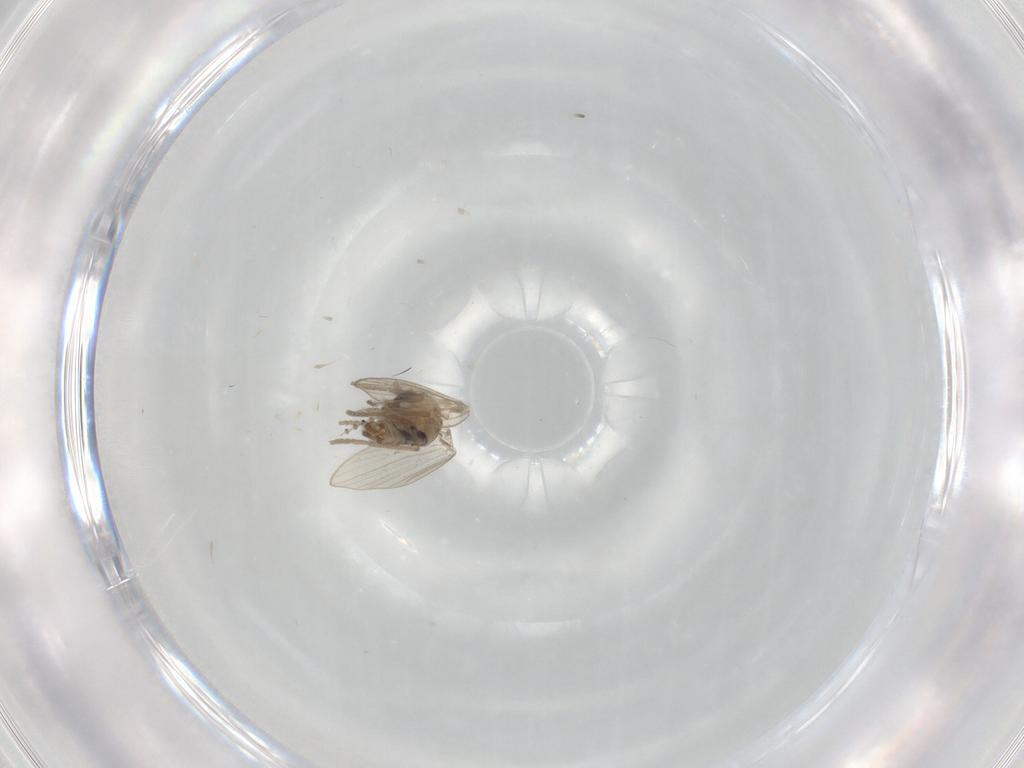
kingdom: Animalia
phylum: Arthropoda
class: Insecta
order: Diptera
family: Psychodidae
